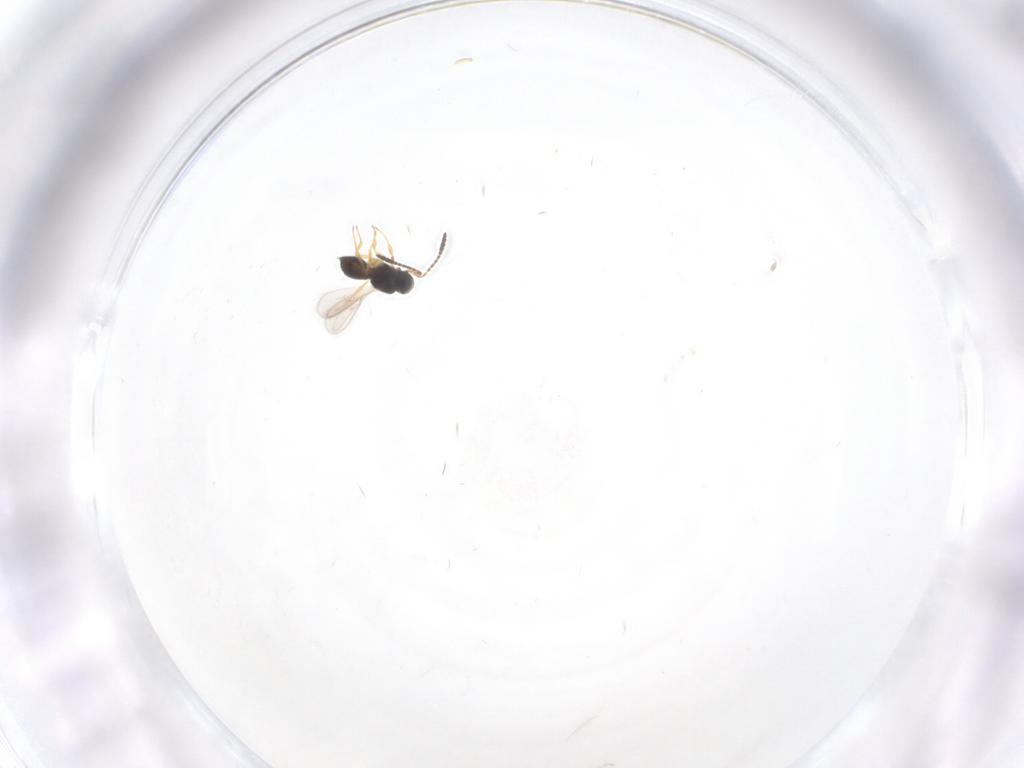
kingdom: Animalia
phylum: Arthropoda
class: Insecta
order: Hymenoptera
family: Scelionidae
